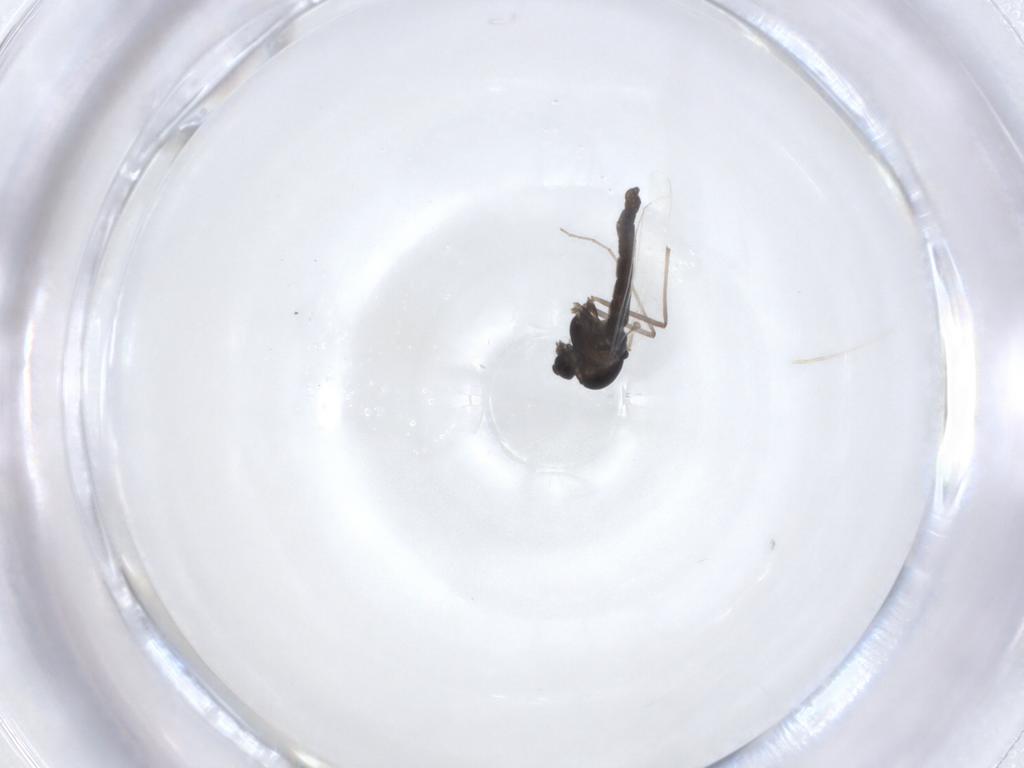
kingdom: Animalia
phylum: Arthropoda
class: Insecta
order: Diptera
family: Chironomidae
